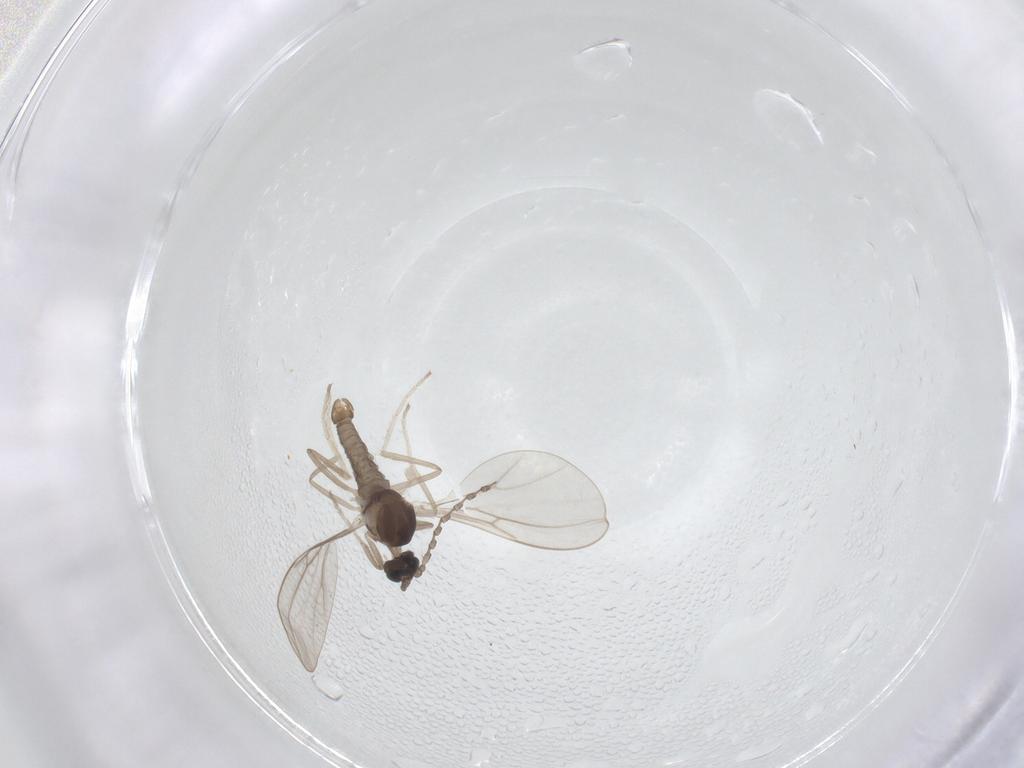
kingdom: Animalia
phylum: Arthropoda
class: Insecta
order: Diptera
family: Cecidomyiidae
